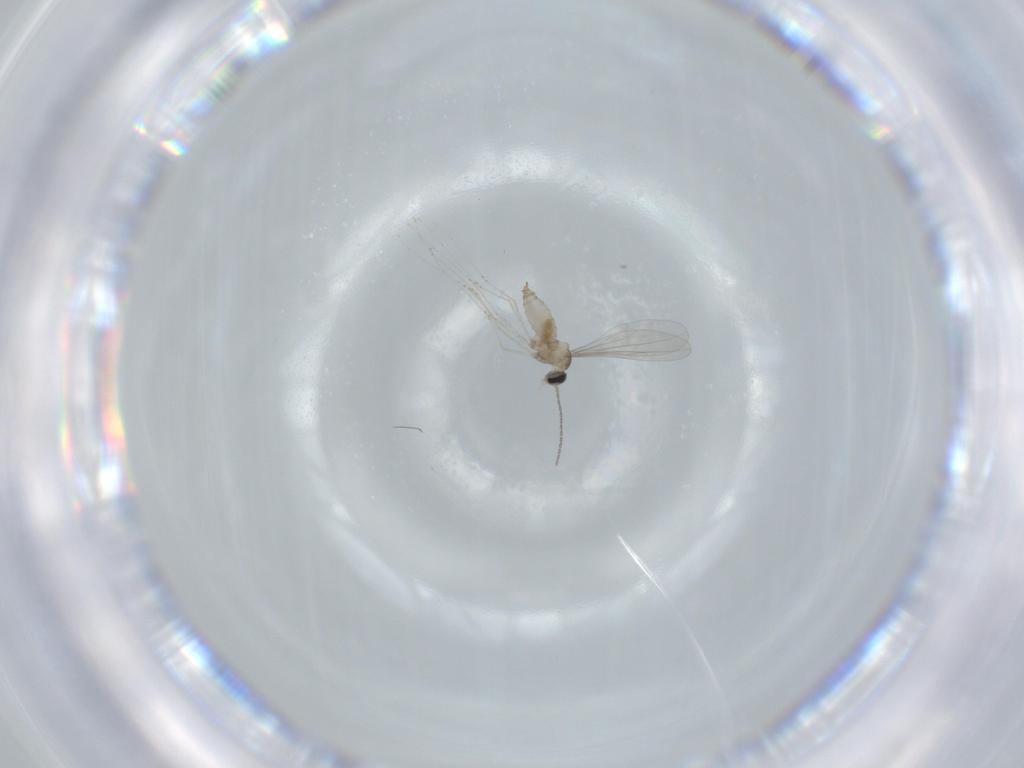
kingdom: Animalia
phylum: Arthropoda
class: Insecta
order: Diptera
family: Cecidomyiidae
